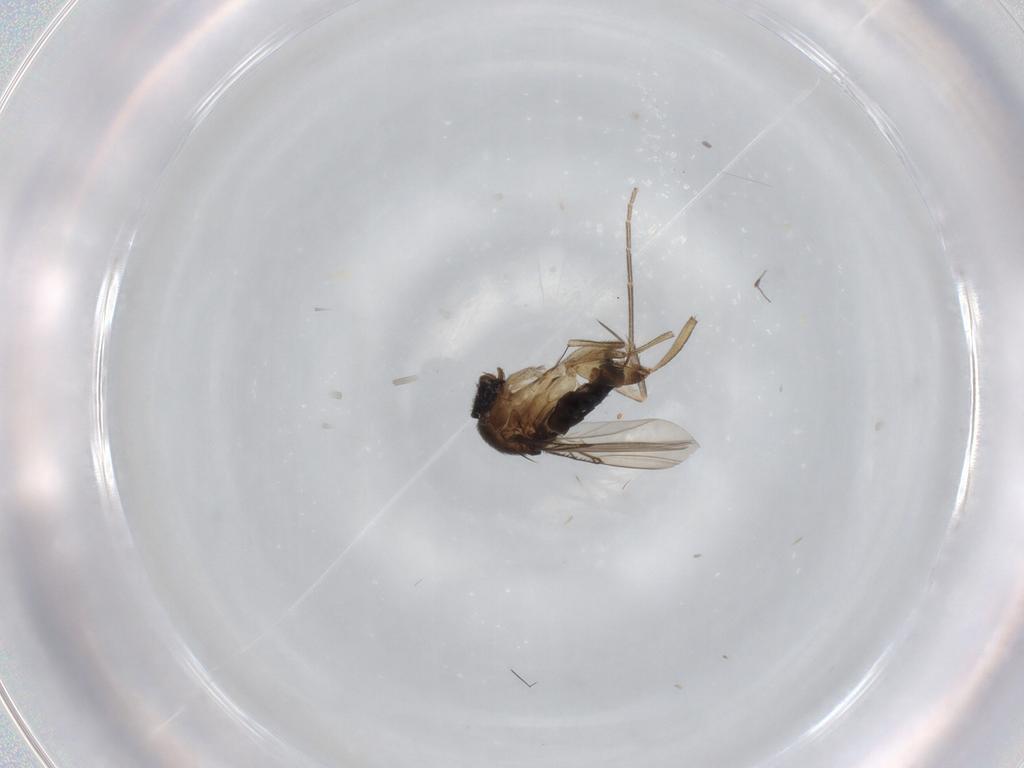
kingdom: Animalia
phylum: Arthropoda
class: Insecta
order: Diptera
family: Phoridae
